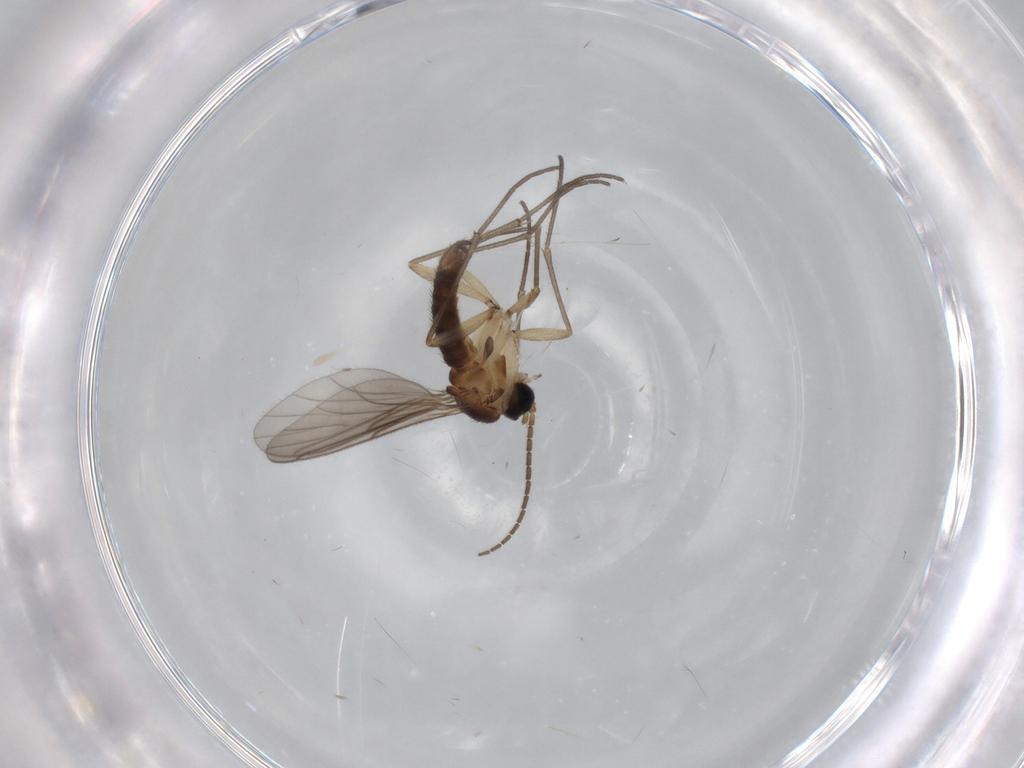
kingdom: Animalia
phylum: Arthropoda
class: Insecta
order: Diptera
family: Sciaridae
